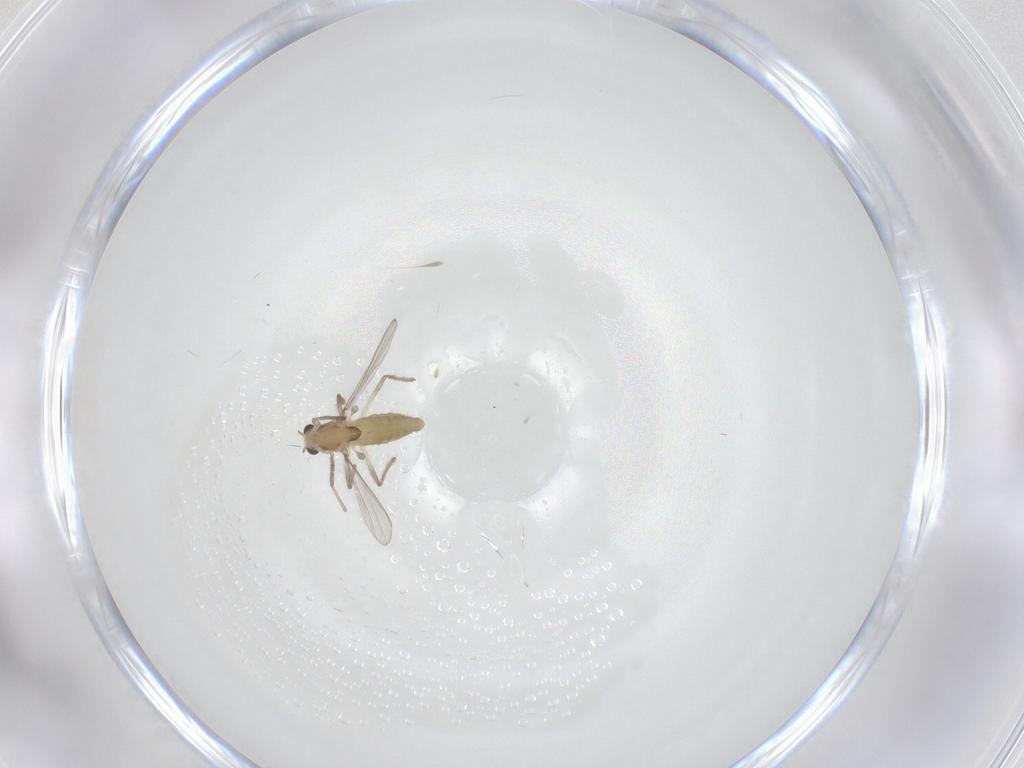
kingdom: Animalia
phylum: Arthropoda
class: Insecta
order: Diptera
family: Chironomidae
